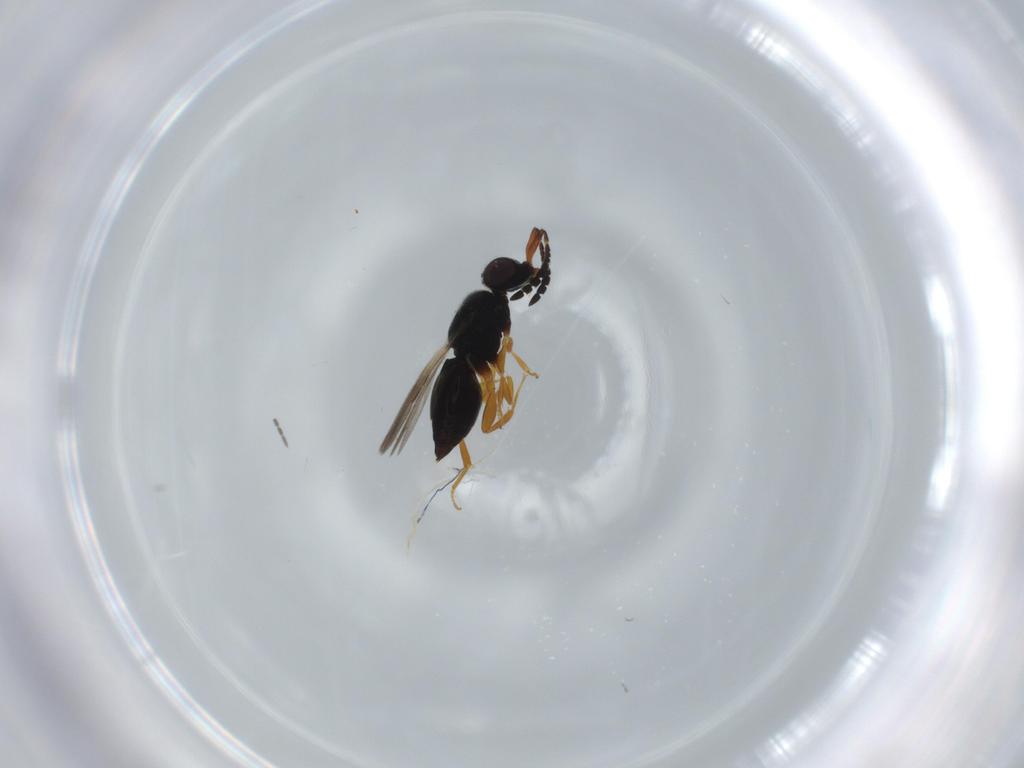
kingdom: Animalia
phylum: Arthropoda
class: Insecta
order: Hymenoptera
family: Ceraphronidae
